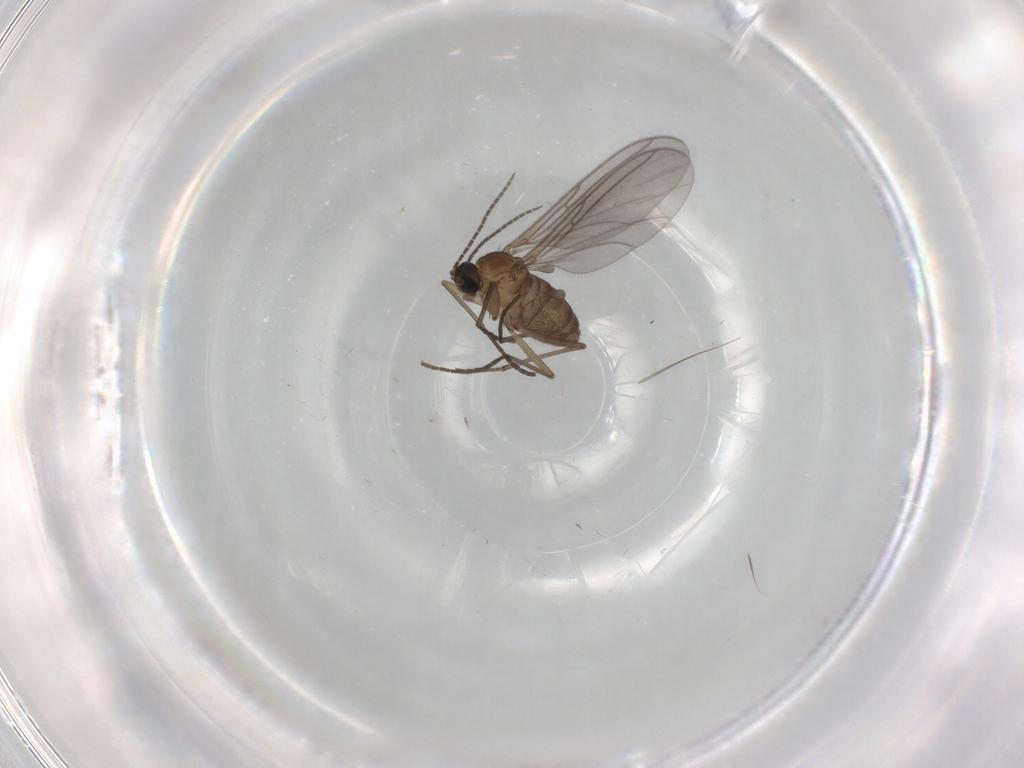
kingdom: Animalia
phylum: Arthropoda
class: Insecta
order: Diptera
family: Sciaridae
